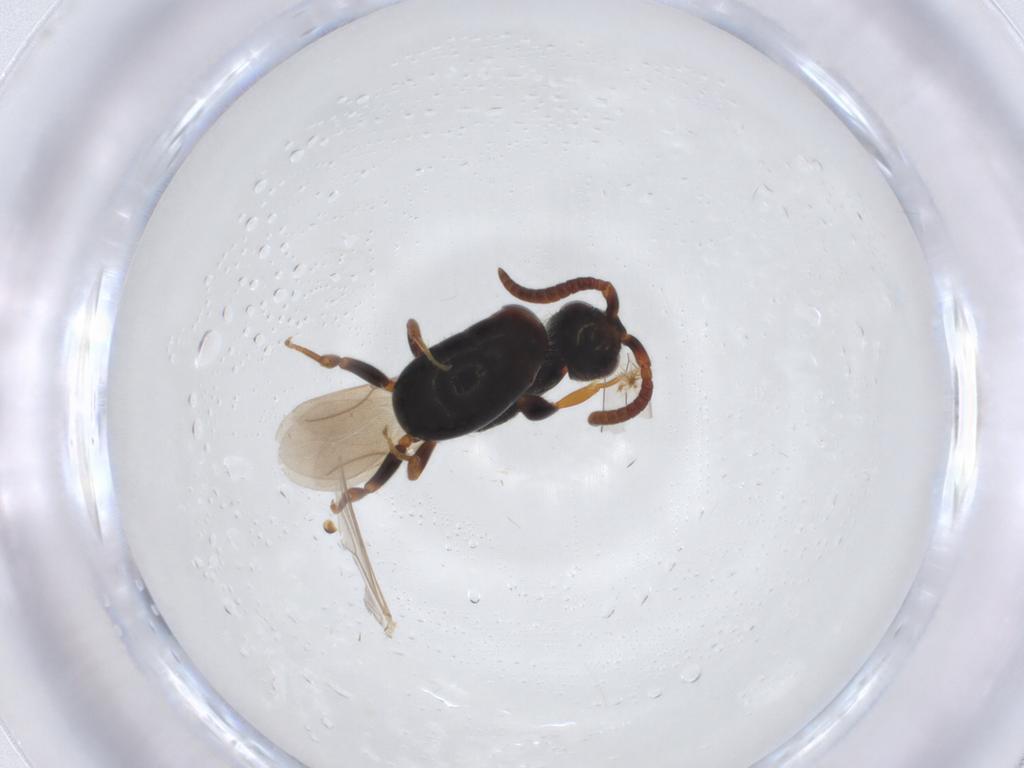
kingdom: Animalia
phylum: Arthropoda
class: Insecta
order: Hymenoptera
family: Bethylidae
